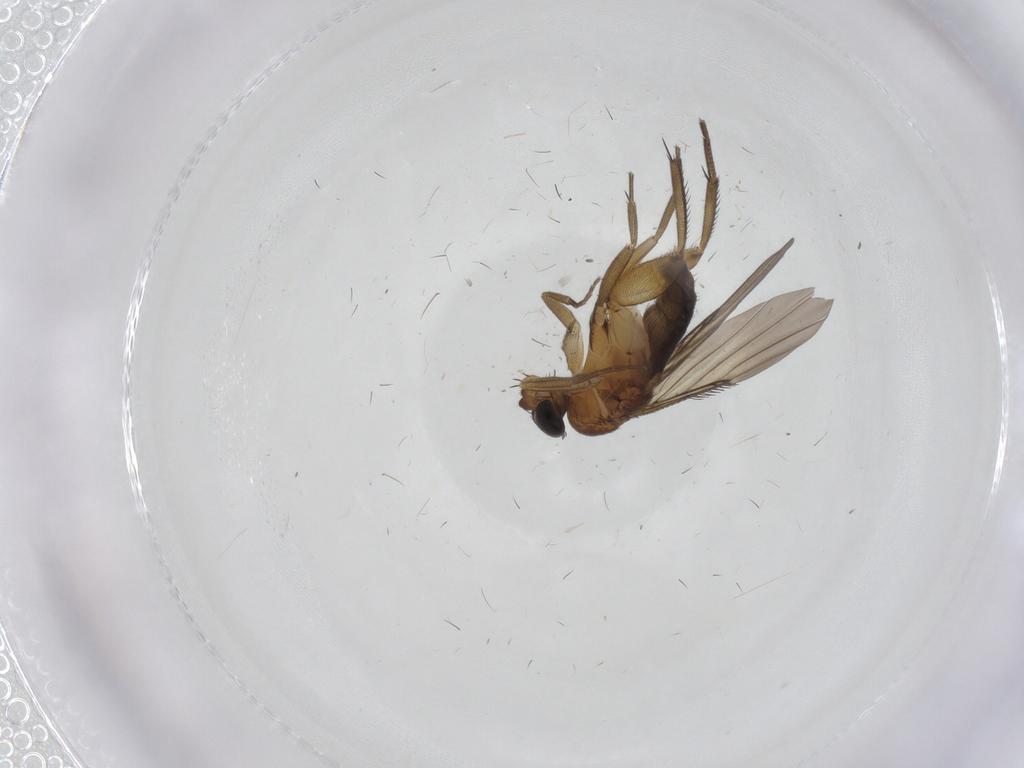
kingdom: Animalia
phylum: Arthropoda
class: Insecta
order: Diptera
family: Phoridae
